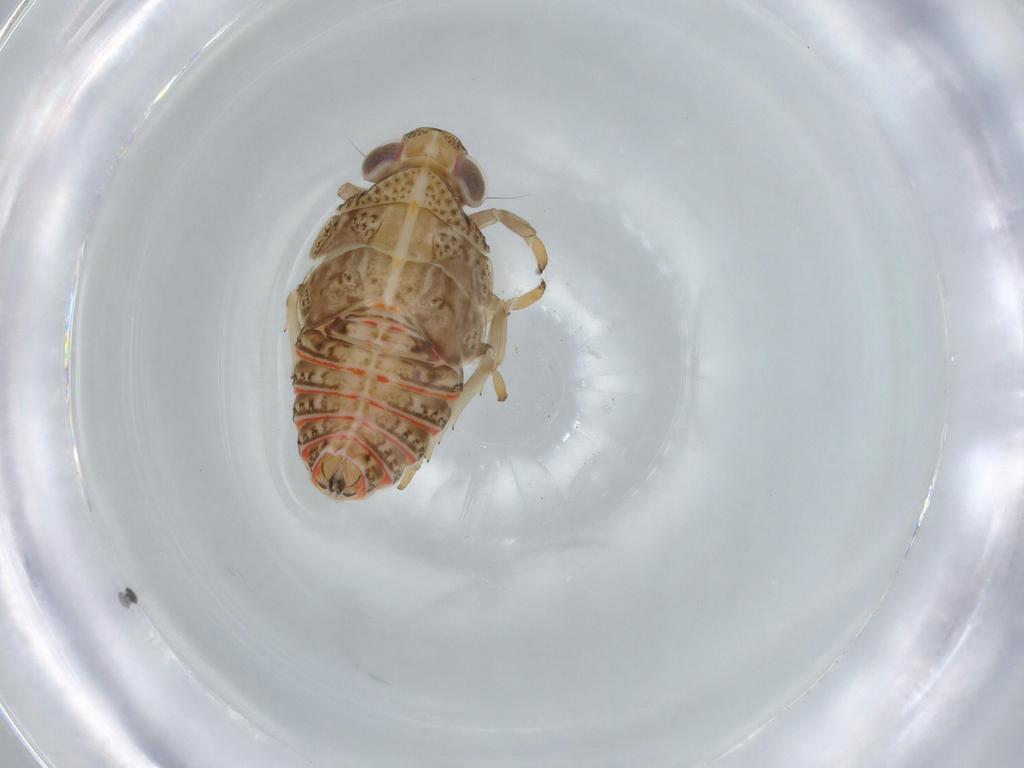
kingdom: Animalia
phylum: Arthropoda
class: Insecta
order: Hemiptera
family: Issidae
